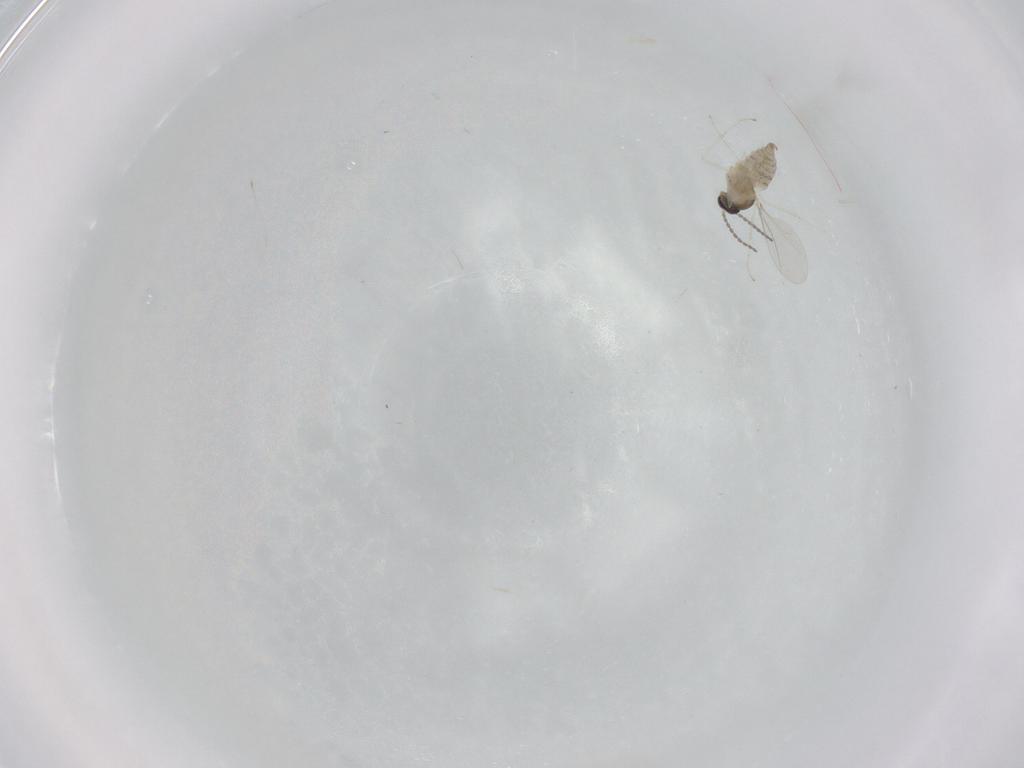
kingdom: Animalia
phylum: Arthropoda
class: Insecta
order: Diptera
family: Cecidomyiidae
